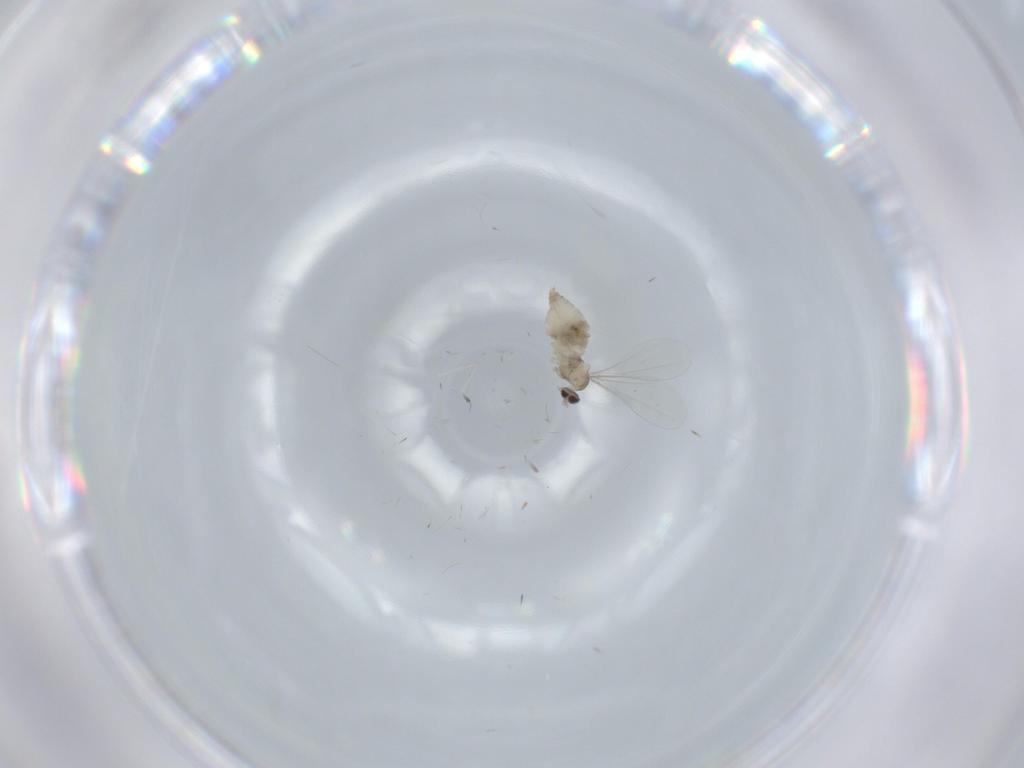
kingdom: Animalia
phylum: Arthropoda
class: Insecta
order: Diptera
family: Cecidomyiidae
